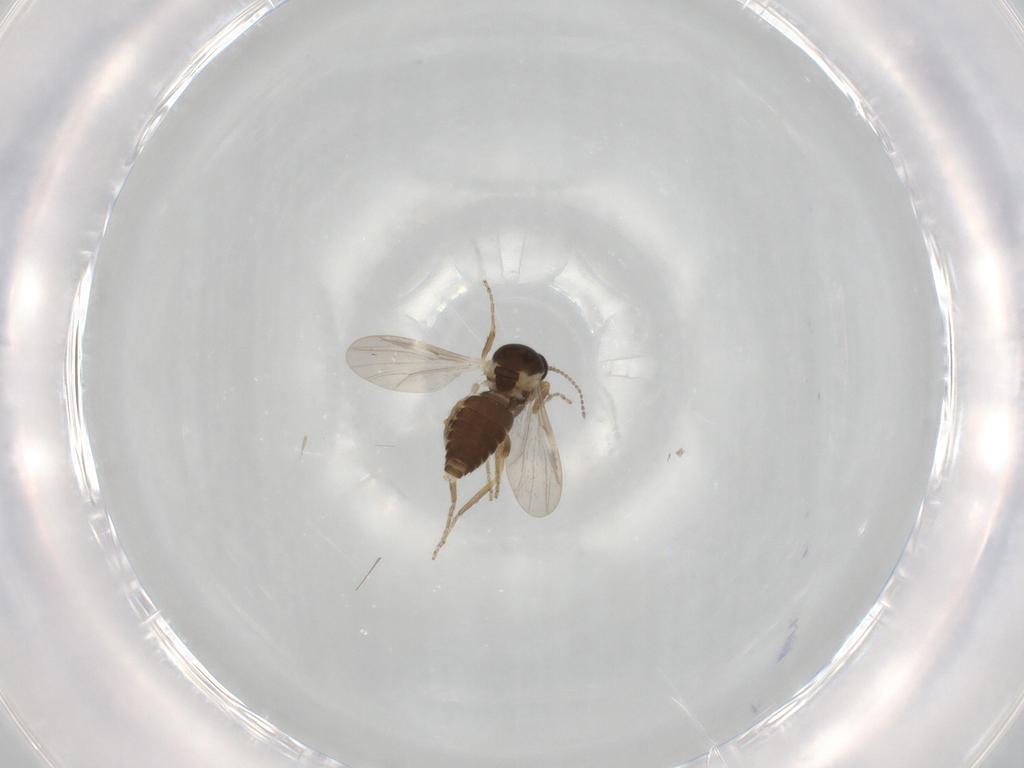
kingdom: Animalia
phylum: Arthropoda
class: Insecta
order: Diptera
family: Ceratopogonidae
